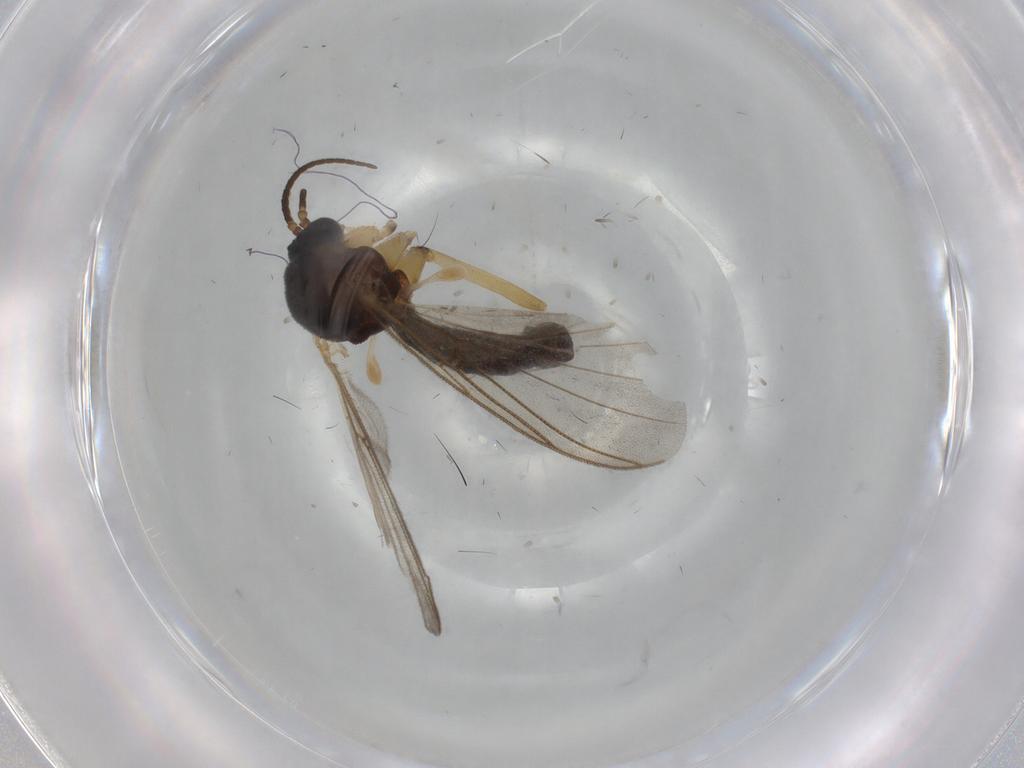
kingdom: Animalia
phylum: Arthropoda
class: Insecta
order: Diptera
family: Mycetophilidae
